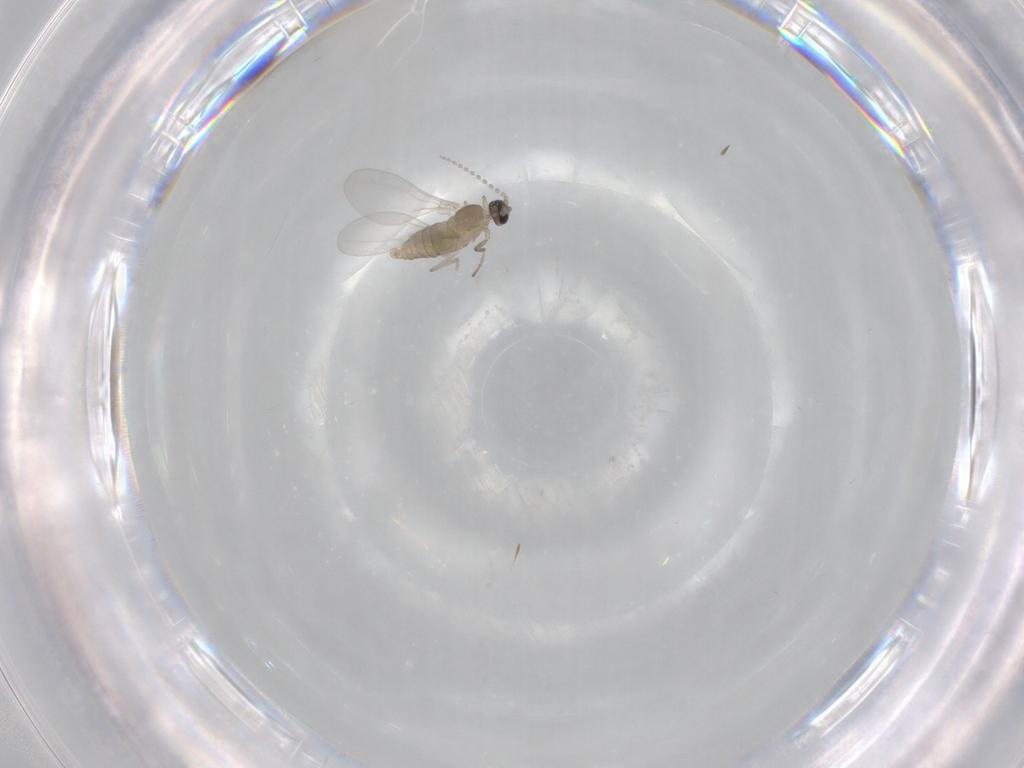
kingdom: Animalia
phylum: Arthropoda
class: Insecta
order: Diptera
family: Cecidomyiidae
